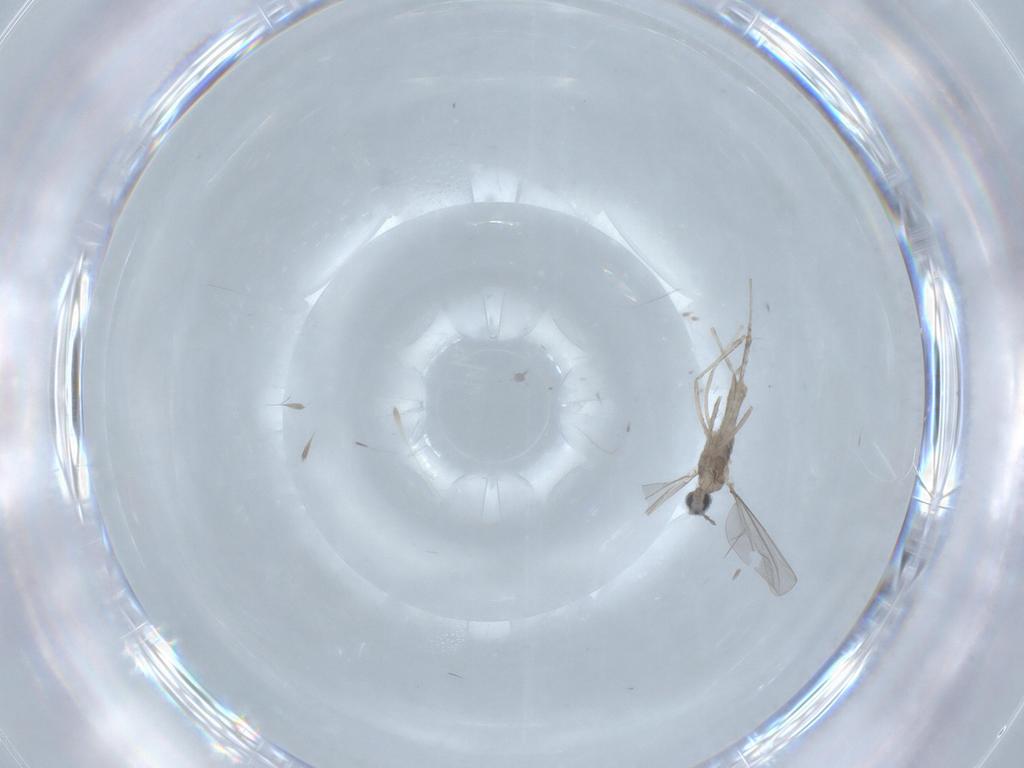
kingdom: Animalia
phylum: Arthropoda
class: Insecta
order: Diptera
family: Cecidomyiidae
